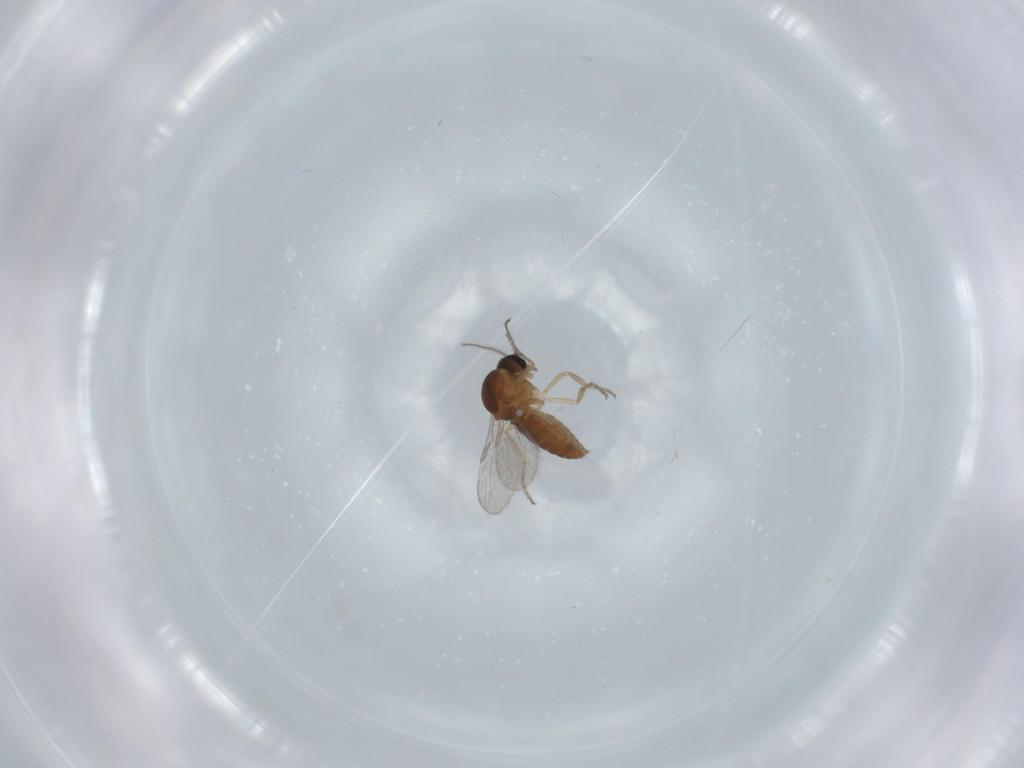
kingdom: Animalia
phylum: Arthropoda
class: Insecta
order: Diptera
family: Ceratopogonidae
